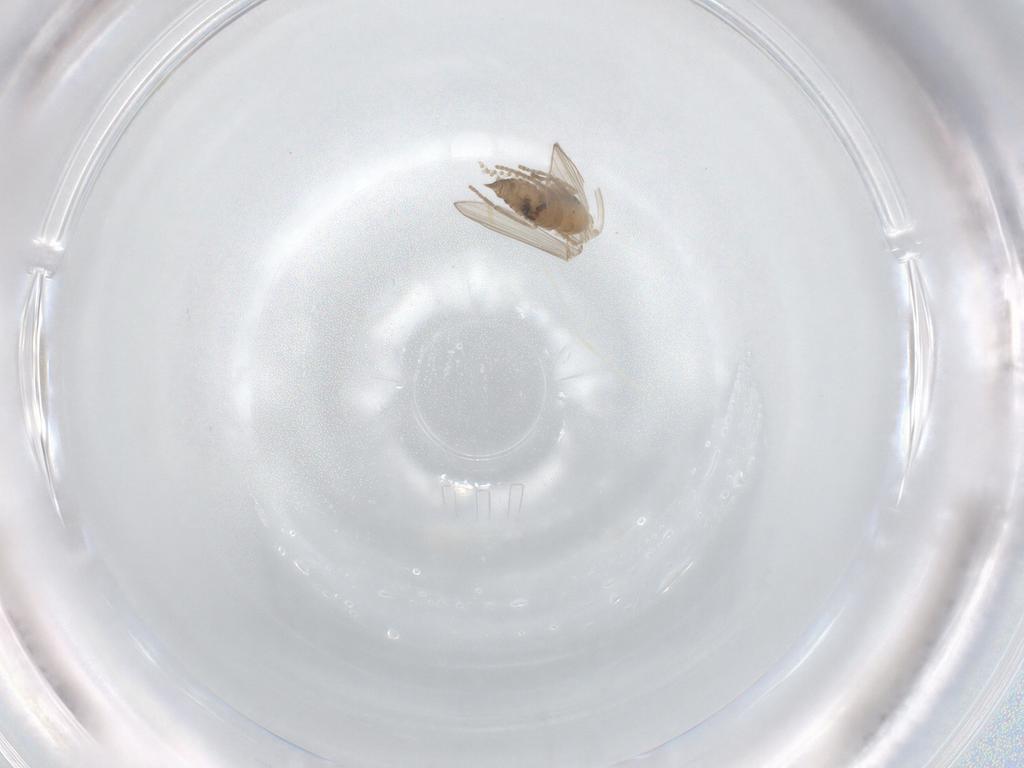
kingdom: Animalia
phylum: Arthropoda
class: Insecta
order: Diptera
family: Psychodidae
